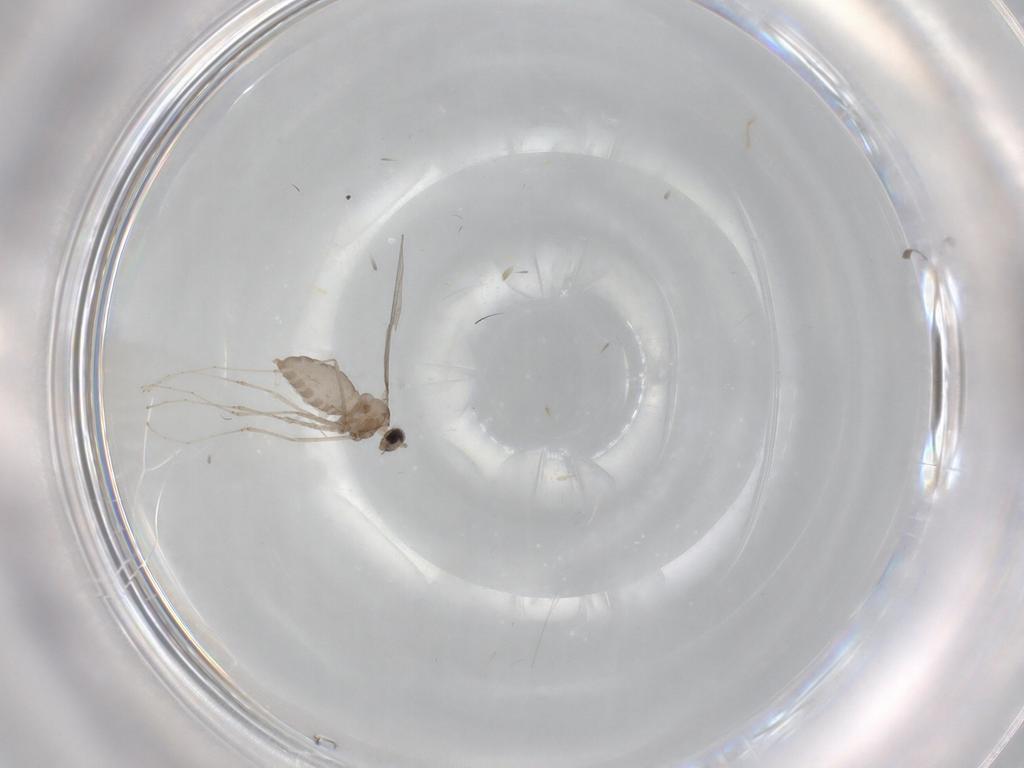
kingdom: Animalia
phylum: Arthropoda
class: Insecta
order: Diptera
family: Cecidomyiidae
